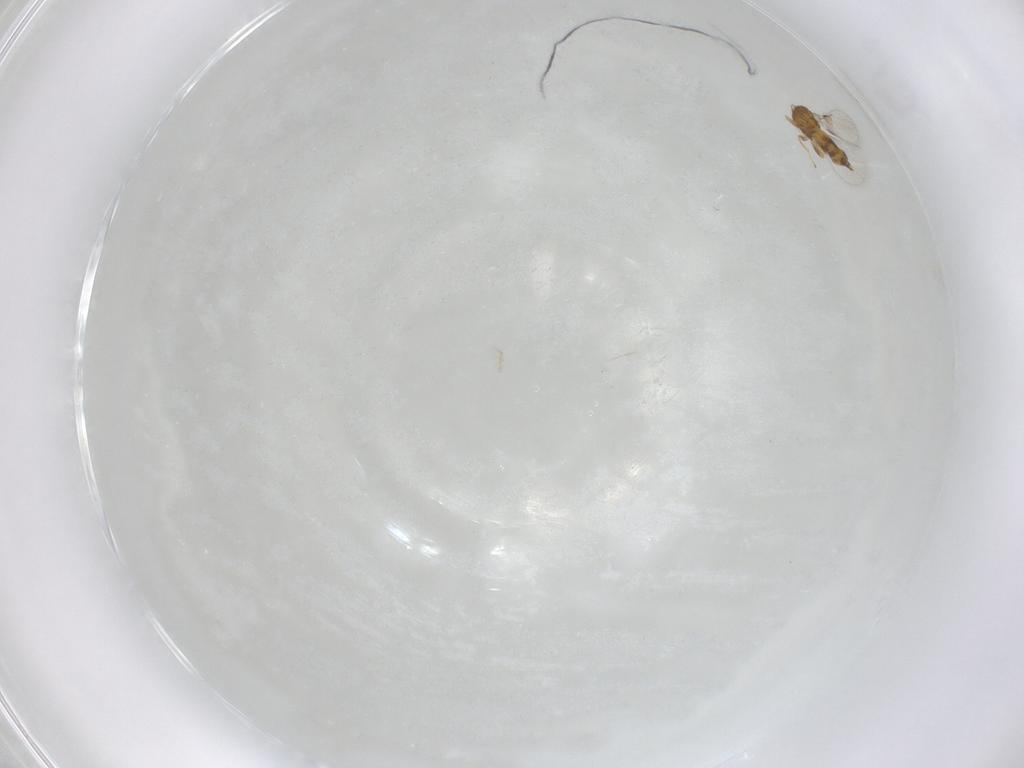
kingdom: Animalia
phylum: Arthropoda
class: Insecta
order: Hymenoptera
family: Trichogrammatidae
